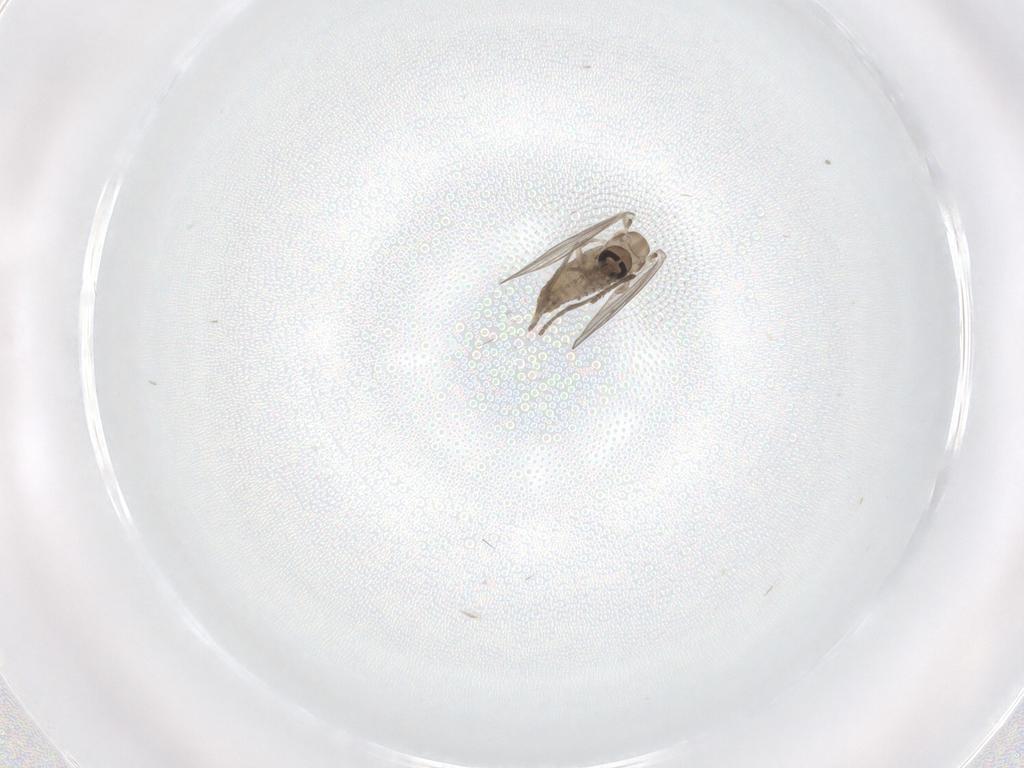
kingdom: Animalia
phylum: Arthropoda
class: Insecta
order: Diptera
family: Psychodidae
